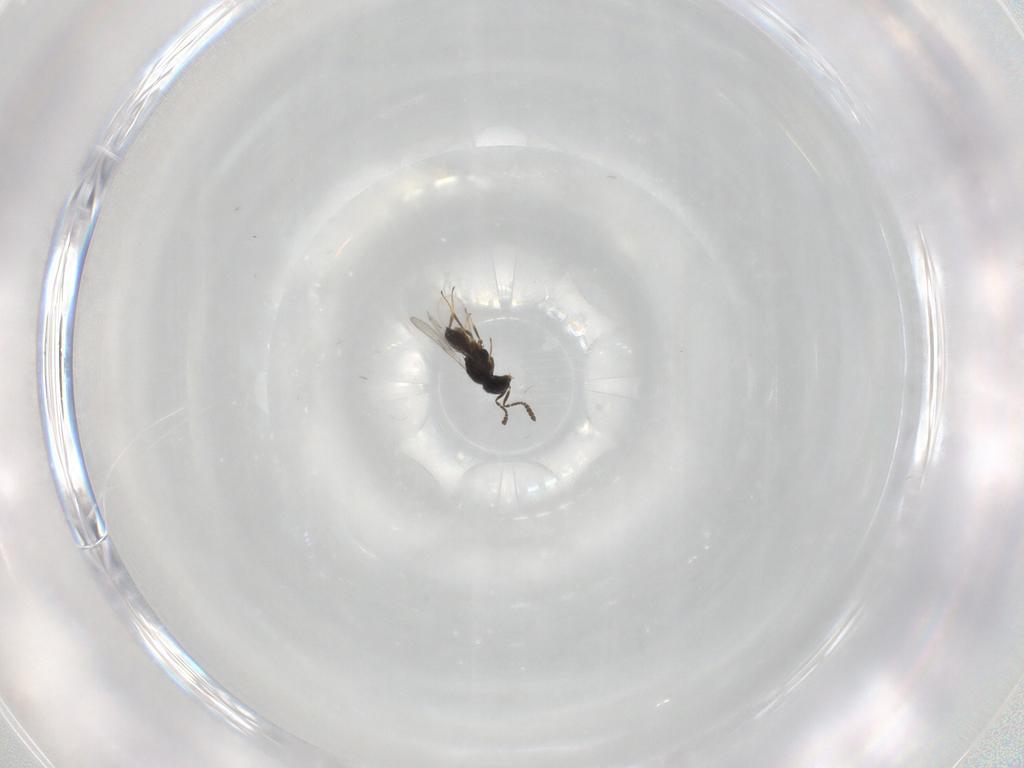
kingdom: Animalia
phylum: Arthropoda
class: Insecta
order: Hymenoptera
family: Scelionidae
